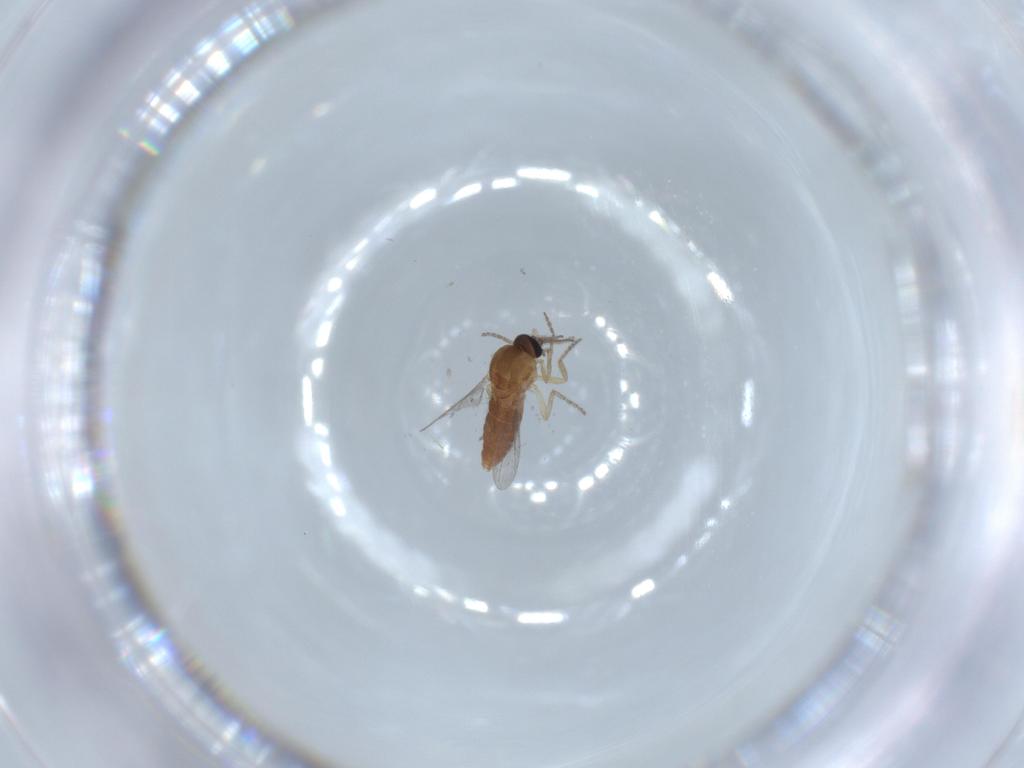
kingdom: Animalia
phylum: Arthropoda
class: Insecta
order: Diptera
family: Ceratopogonidae
